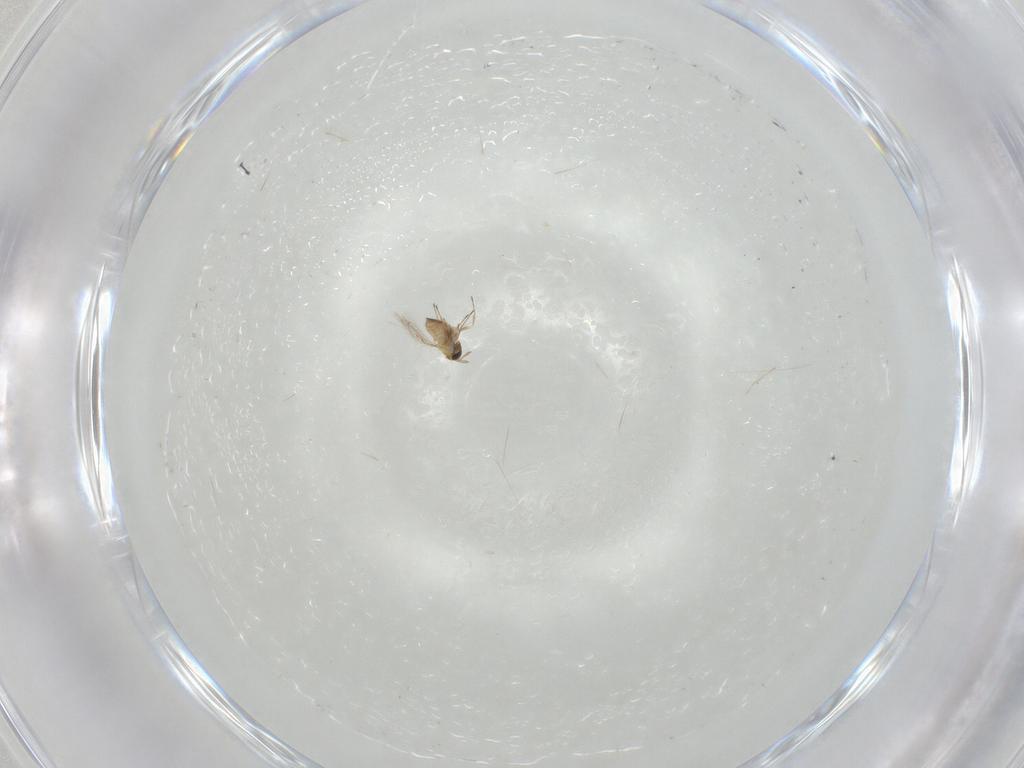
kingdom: Animalia
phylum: Arthropoda
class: Insecta
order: Hymenoptera
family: Trichogrammatidae
